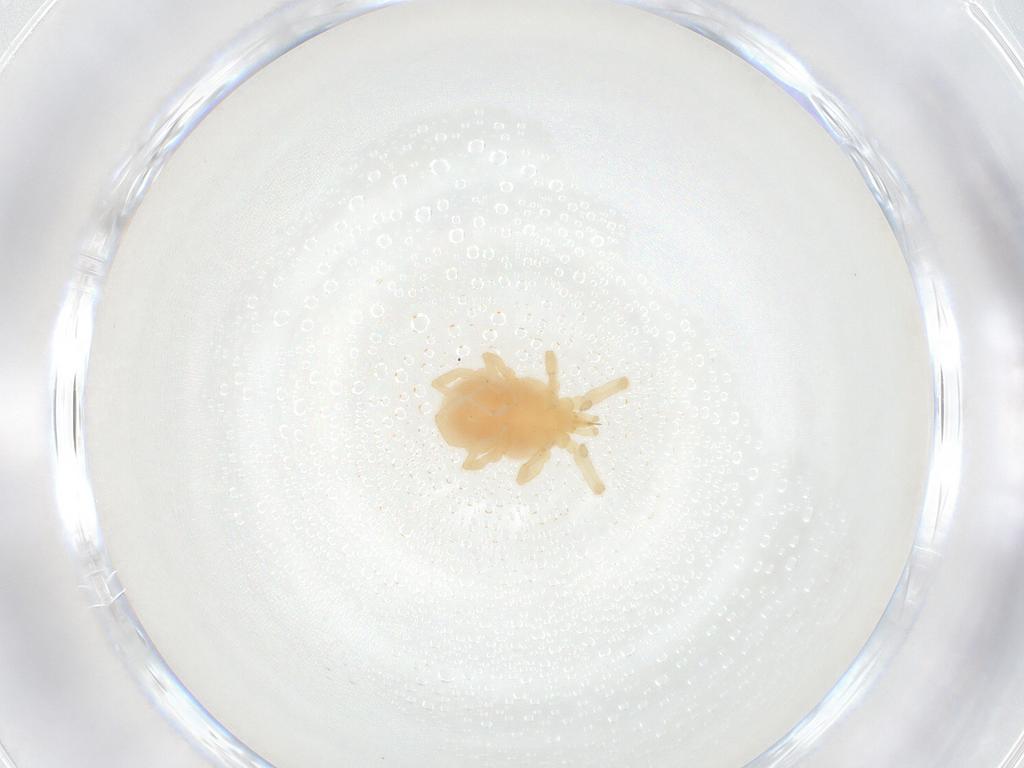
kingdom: Animalia
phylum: Arthropoda
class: Arachnida
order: Trombidiformes
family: Erythraeidae
